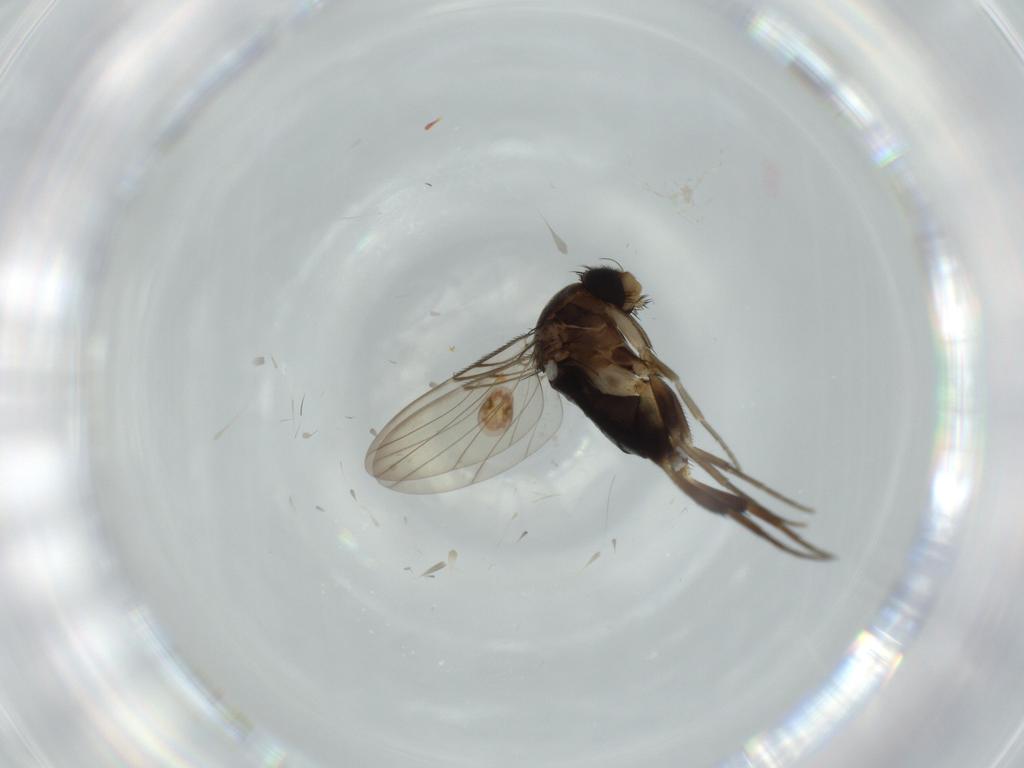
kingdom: Animalia
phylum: Arthropoda
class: Insecta
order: Diptera
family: Phoridae
